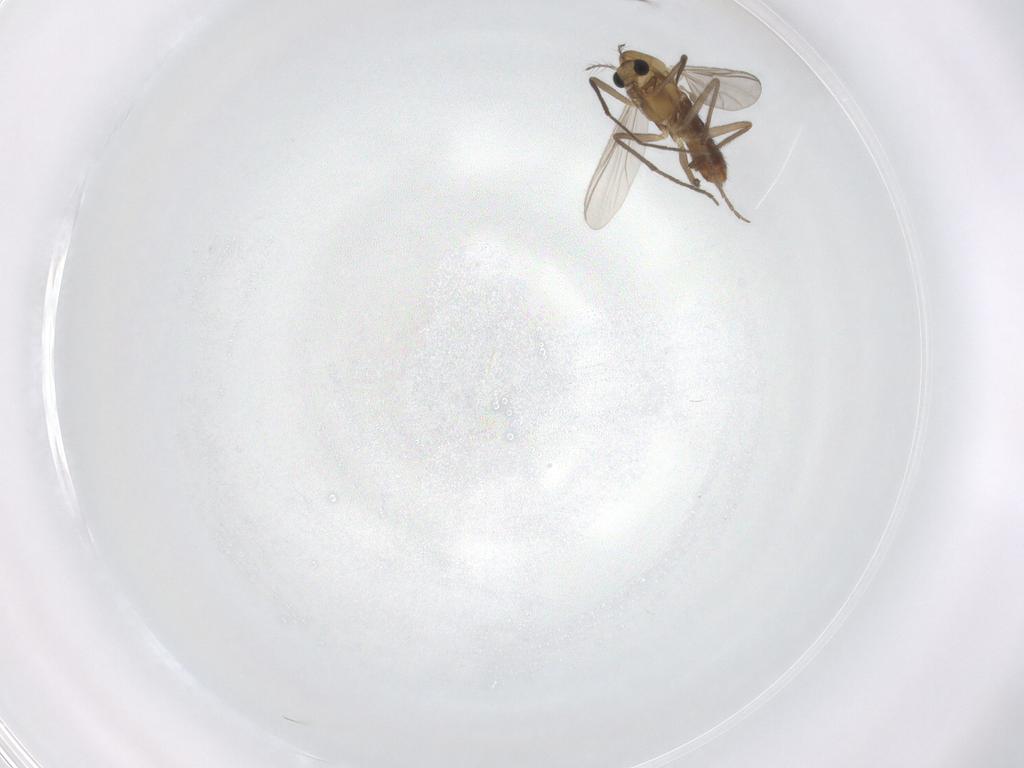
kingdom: Animalia
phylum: Arthropoda
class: Insecta
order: Diptera
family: Chironomidae
